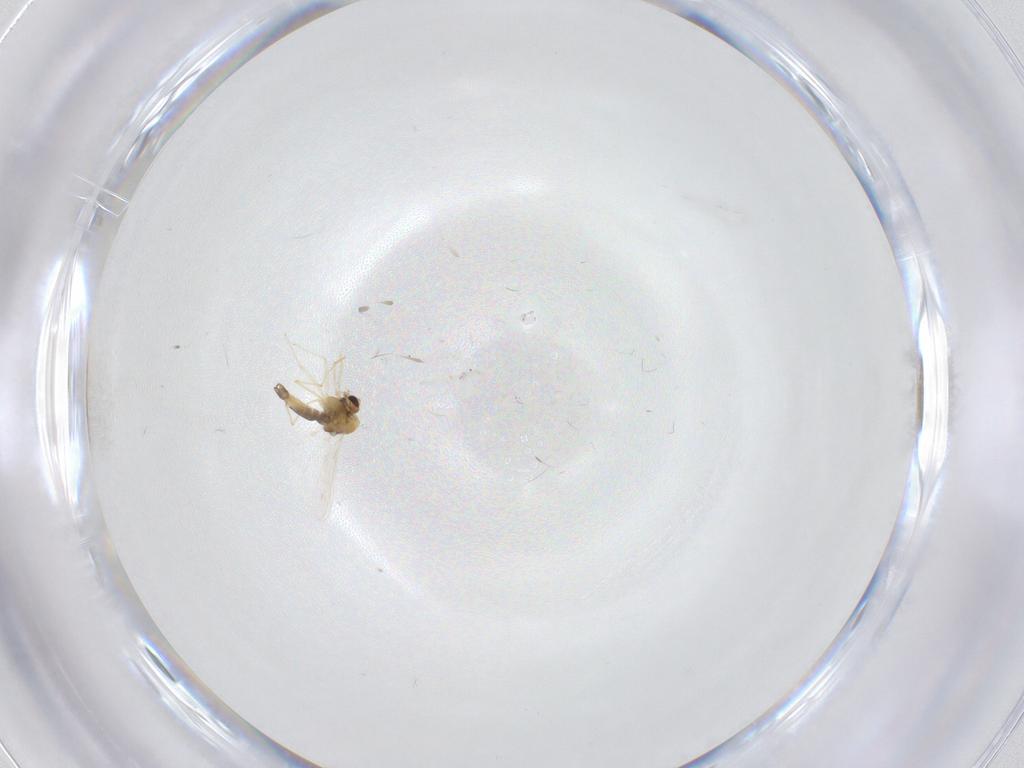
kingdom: Animalia
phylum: Arthropoda
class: Insecta
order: Diptera
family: Chironomidae
